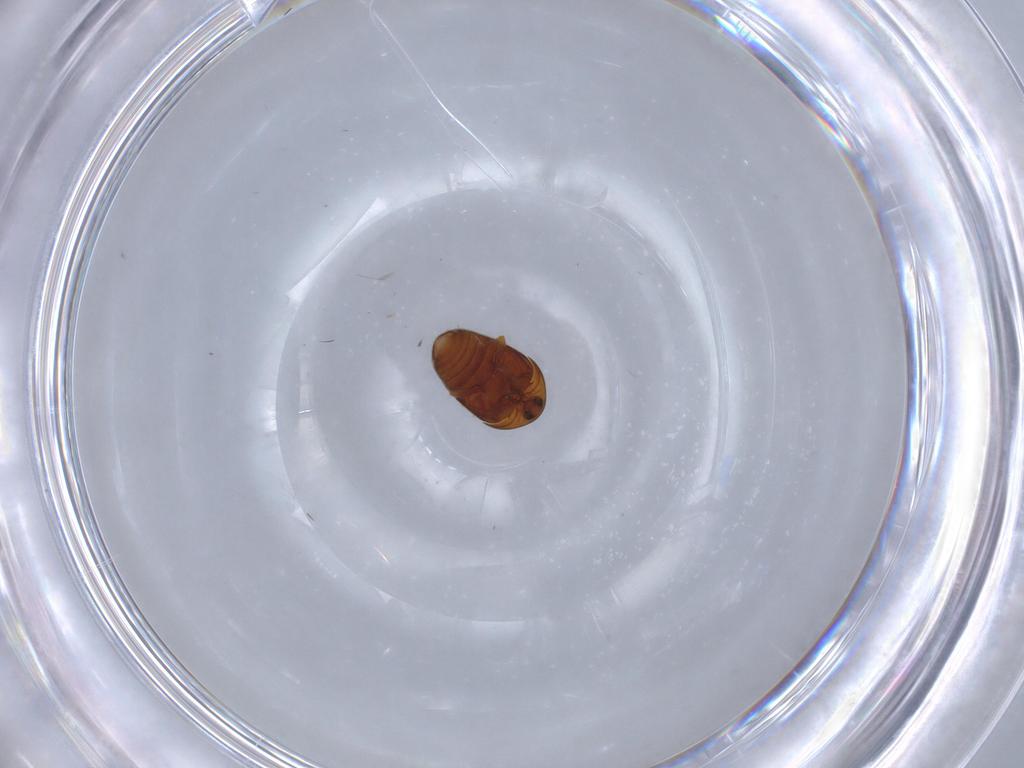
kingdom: Animalia
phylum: Arthropoda
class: Insecta
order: Coleoptera
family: Corylophidae
